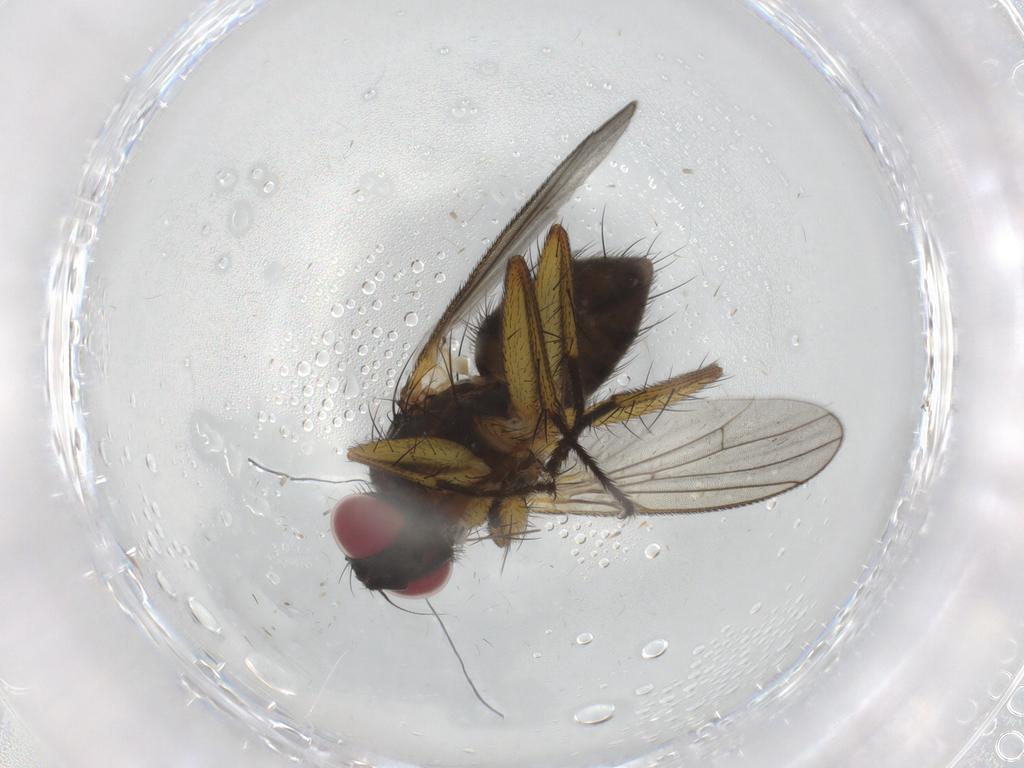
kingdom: Animalia
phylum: Arthropoda
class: Insecta
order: Diptera
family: Muscidae
